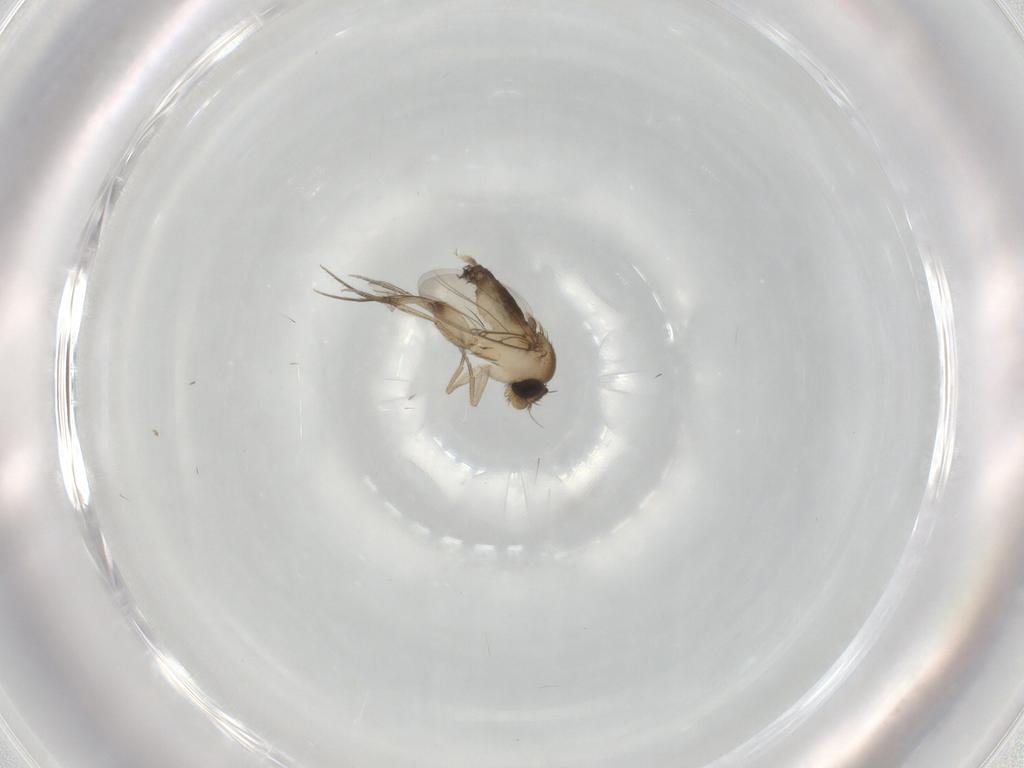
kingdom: Animalia
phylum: Arthropoda
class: Insecta
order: Diptera
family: Phoridae
